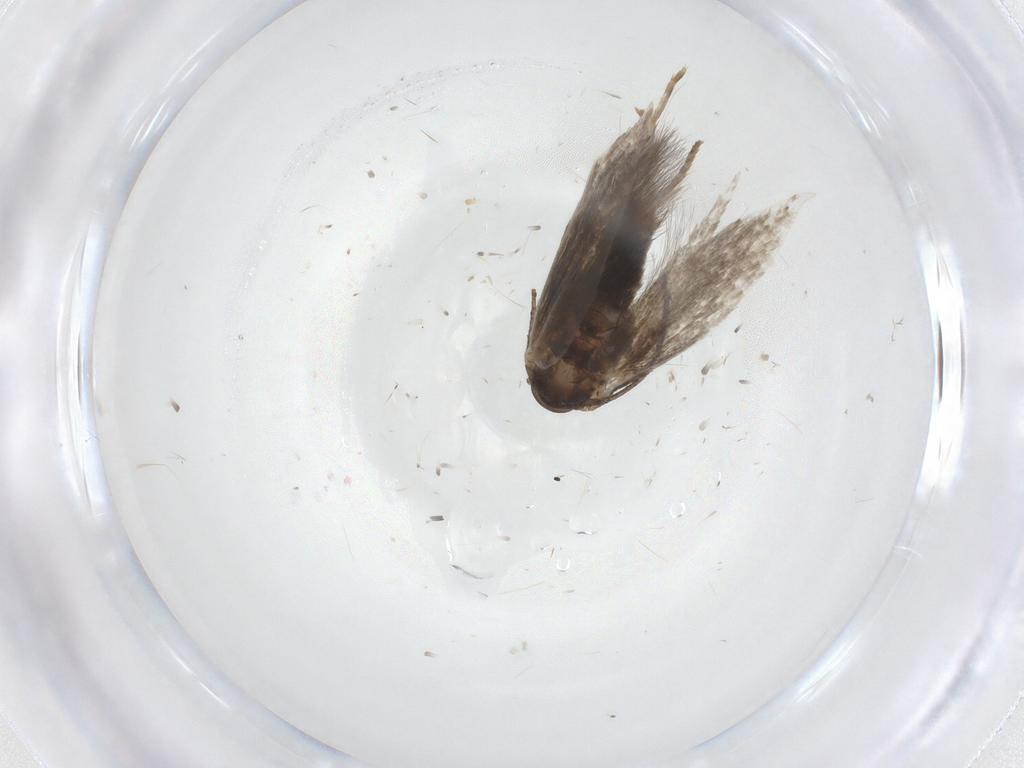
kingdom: Animalia
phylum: Arthropoda
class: Insecta
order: Lepidoptera
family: Elachistidae
